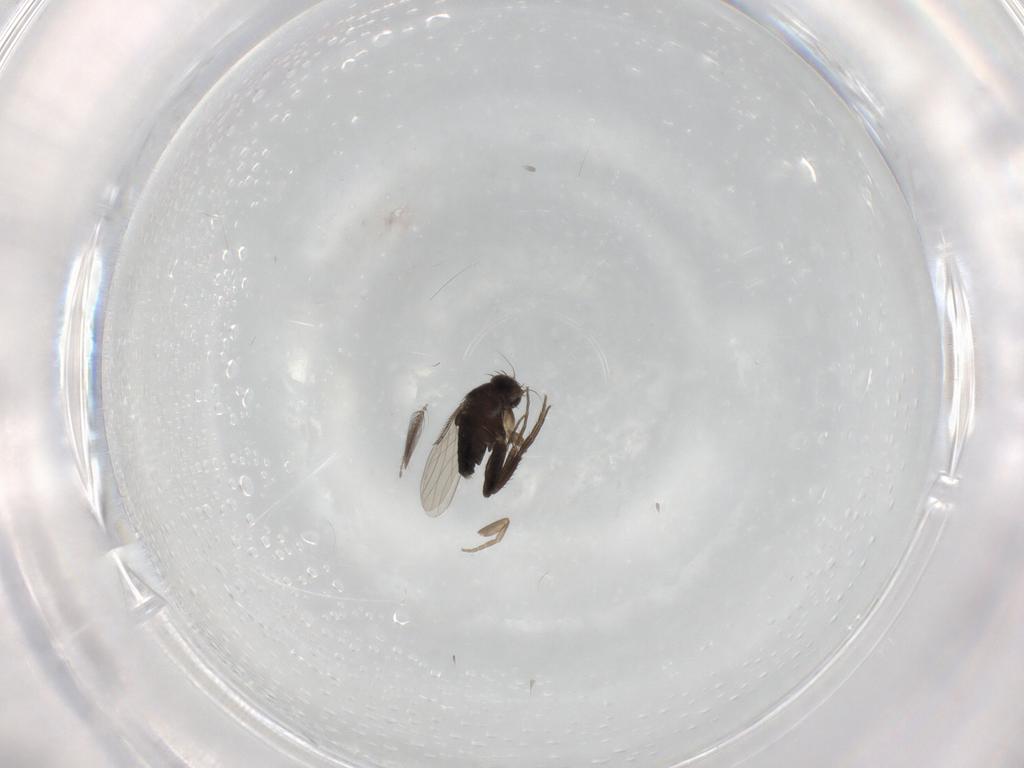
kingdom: Animalia
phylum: Arthropoda
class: Insecta
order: Diptera
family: Phoridae
